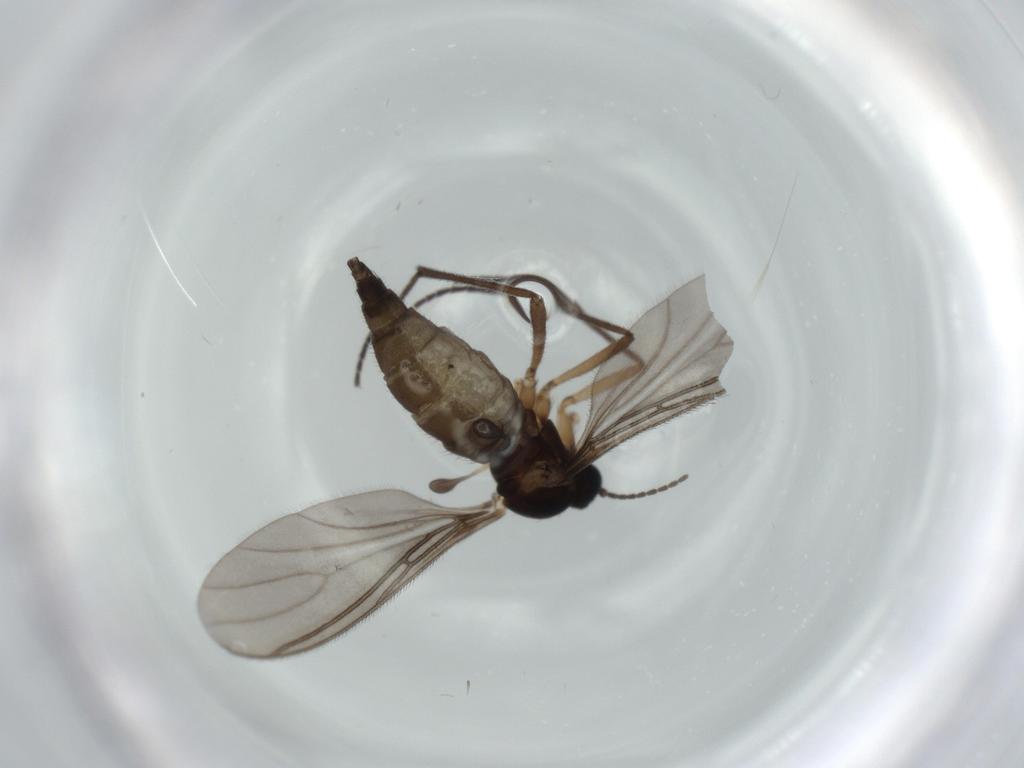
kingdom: Animalia
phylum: Arthropoda
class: Insecta
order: Diptera
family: Sciaridae
